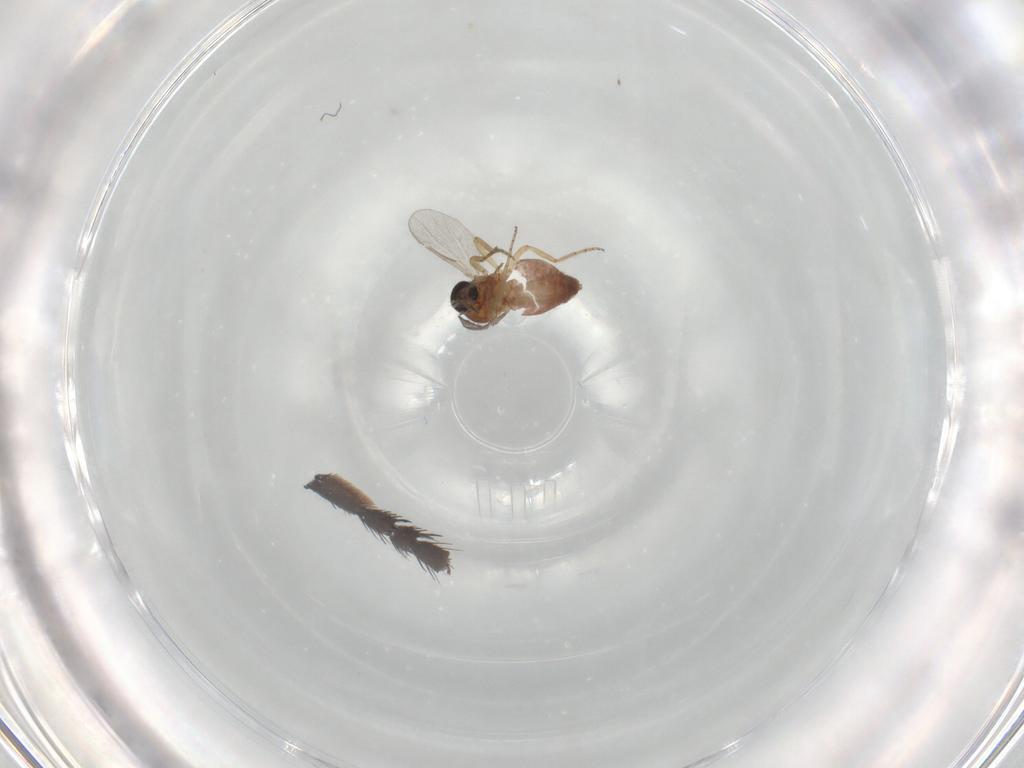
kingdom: Animalia
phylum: Arthropoda
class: Insecta
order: Diptera
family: Ceratopogonidae
